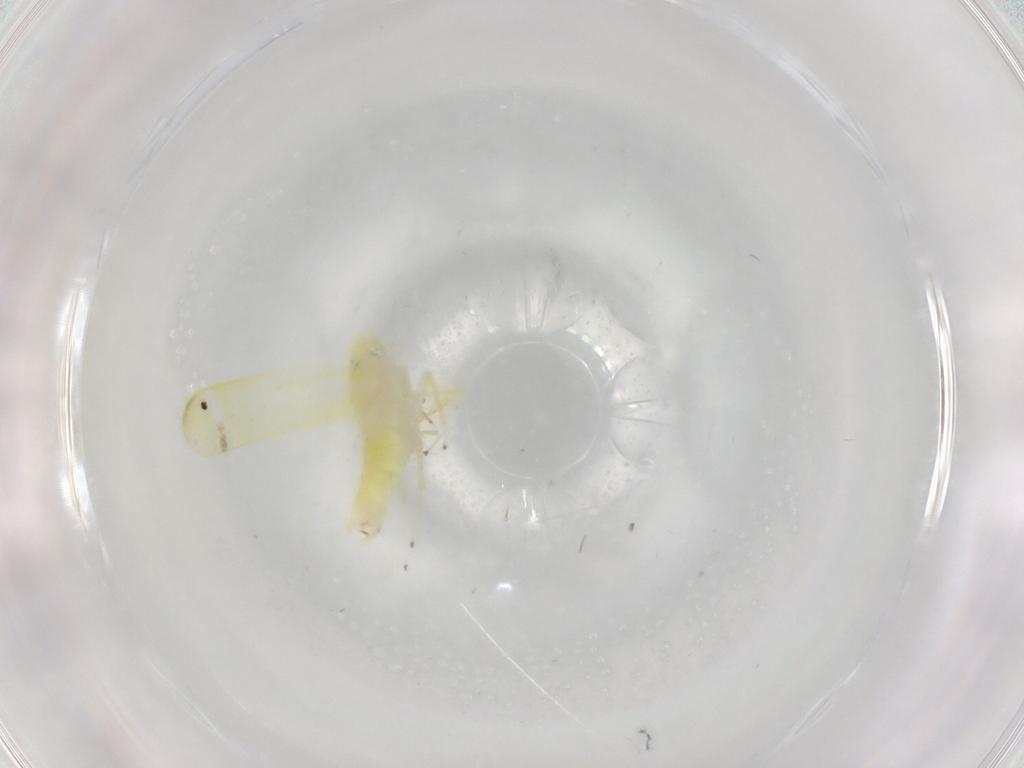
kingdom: Animalia
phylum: Arthropoda
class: Insecta
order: Hemiptera
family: Cicadellidae
